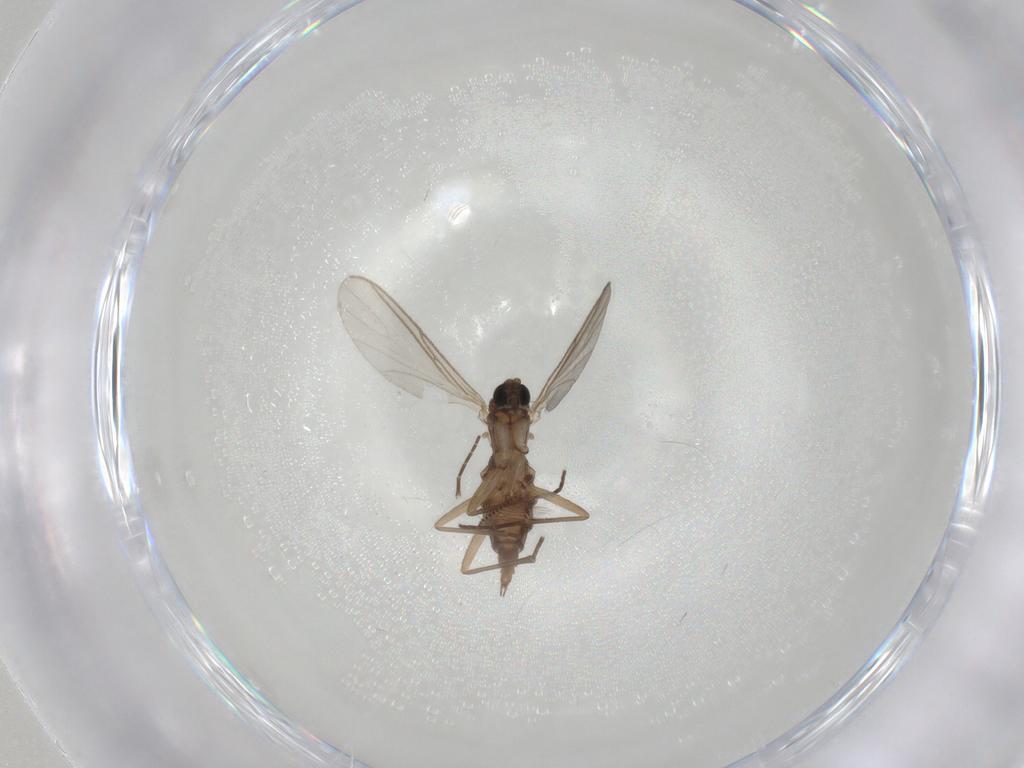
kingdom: Animalia
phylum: Arthropoda
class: Insecta
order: Diptera
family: Sciaridae
